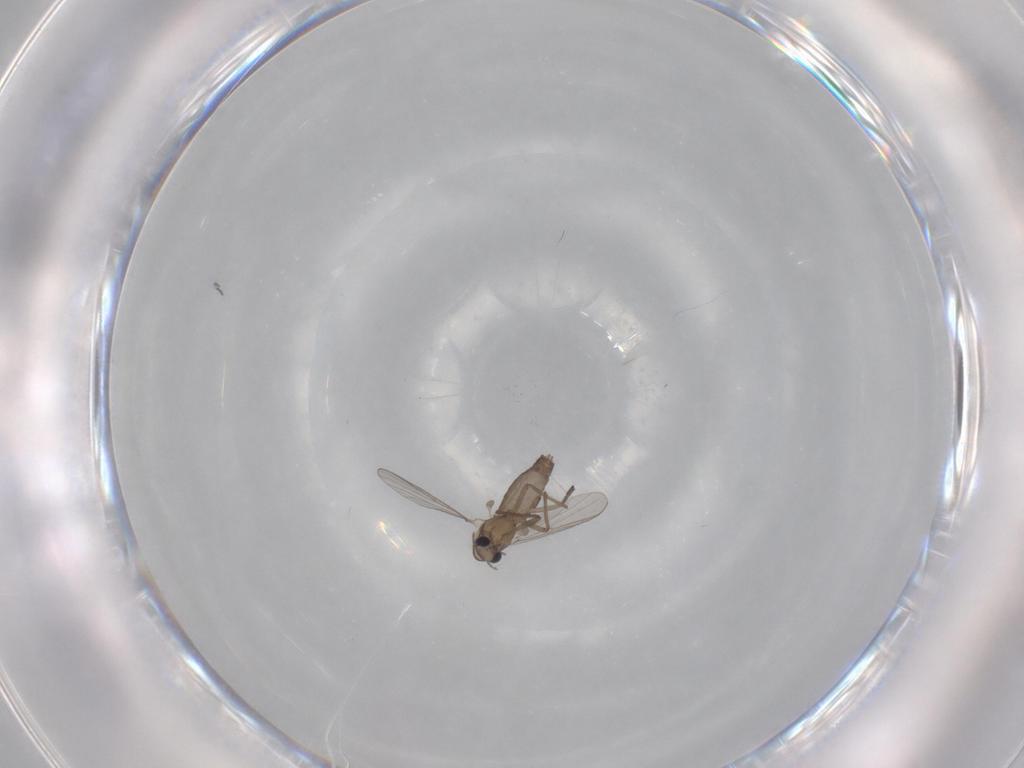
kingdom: Animalia
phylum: Arthropoda
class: Insecta
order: Diptera
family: Chironomidae
